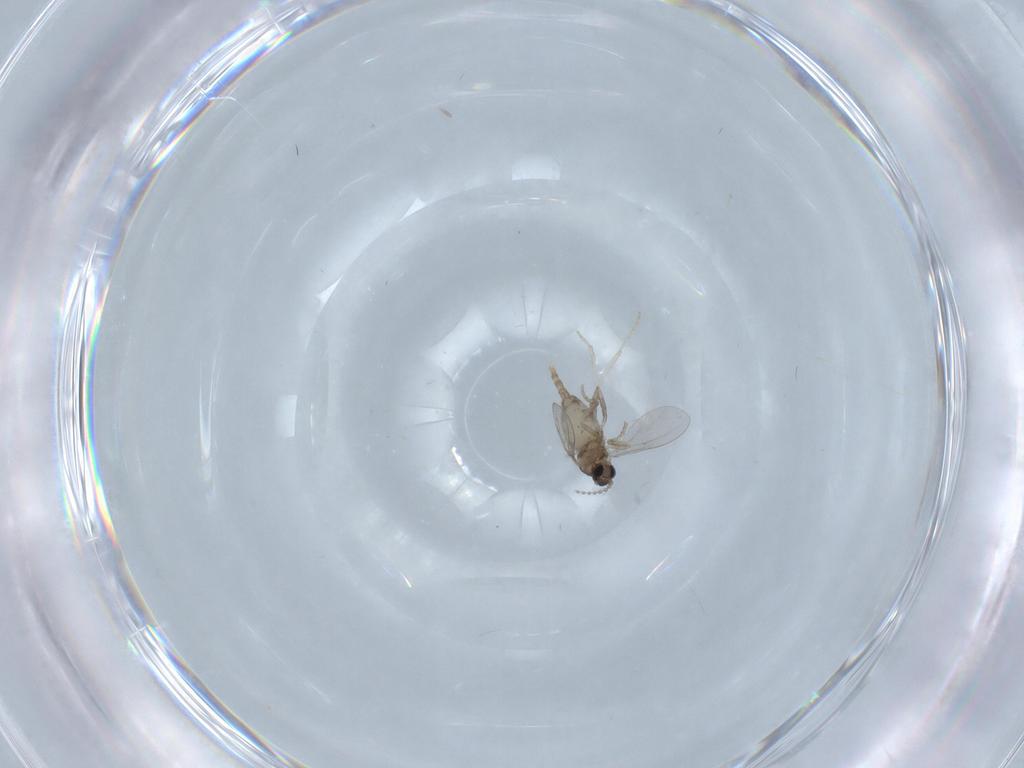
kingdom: Animalia
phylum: Arthropoda
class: Insecta
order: Diptera
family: Cecidomyiidae
